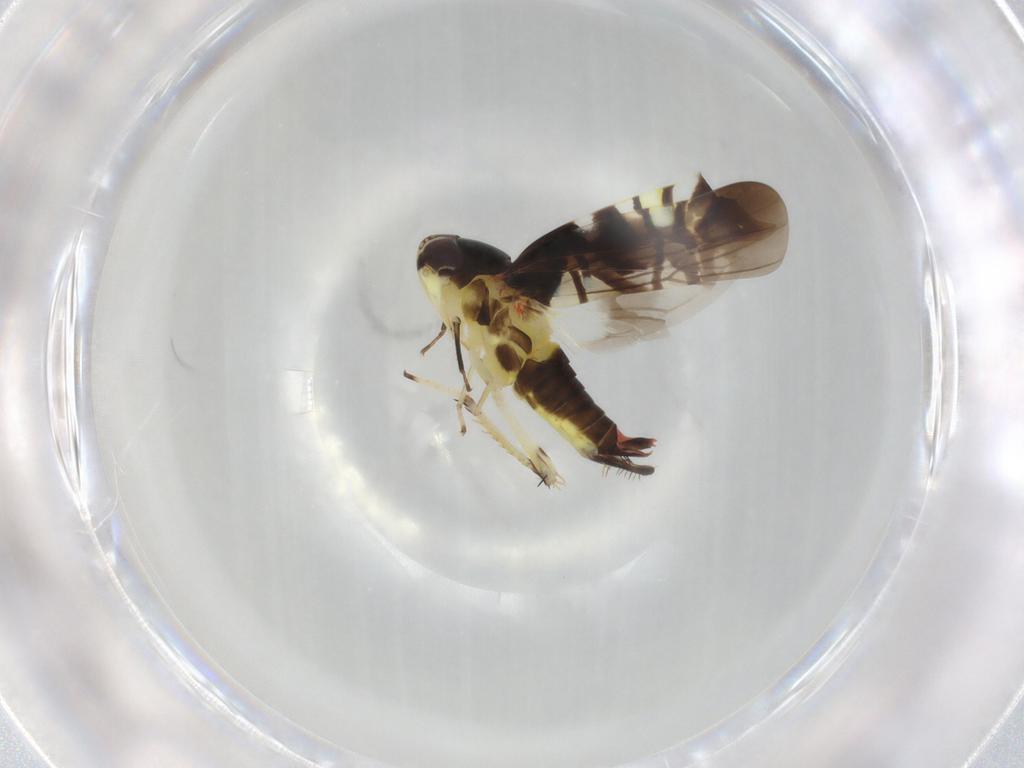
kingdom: Animalia
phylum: Arthropoda
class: Insecta
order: Hemiptera
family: Cicadellidae
